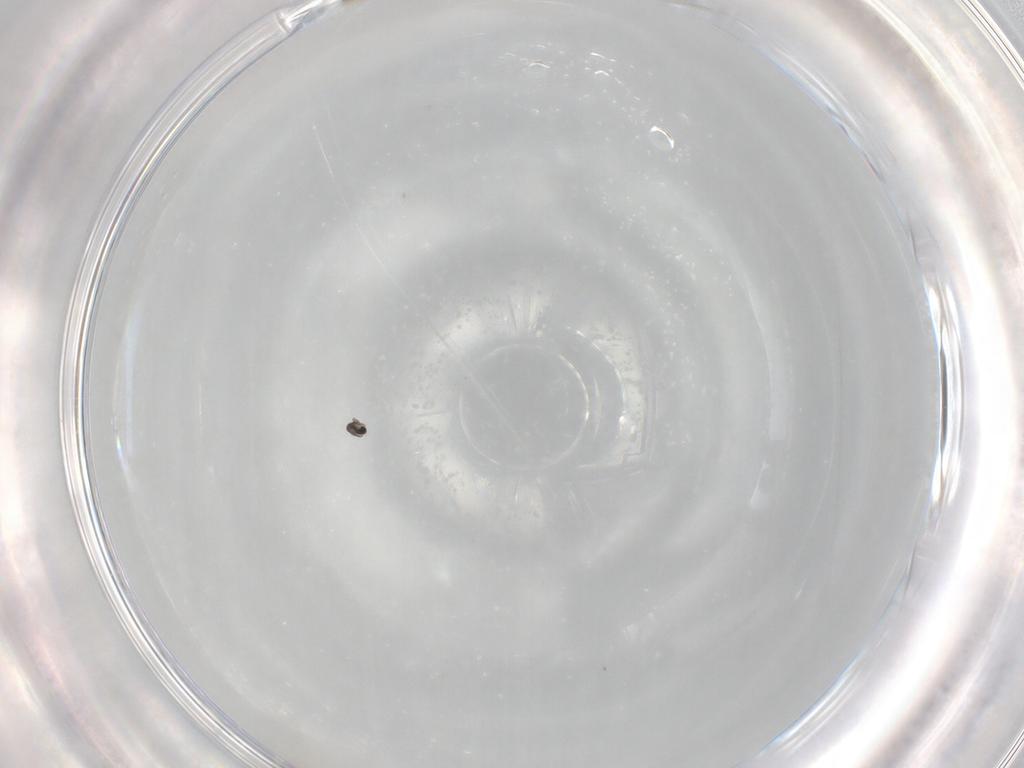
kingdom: Animalia
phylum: Arthropoda
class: Insecta
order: Diptera
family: Cecidomyiidae
